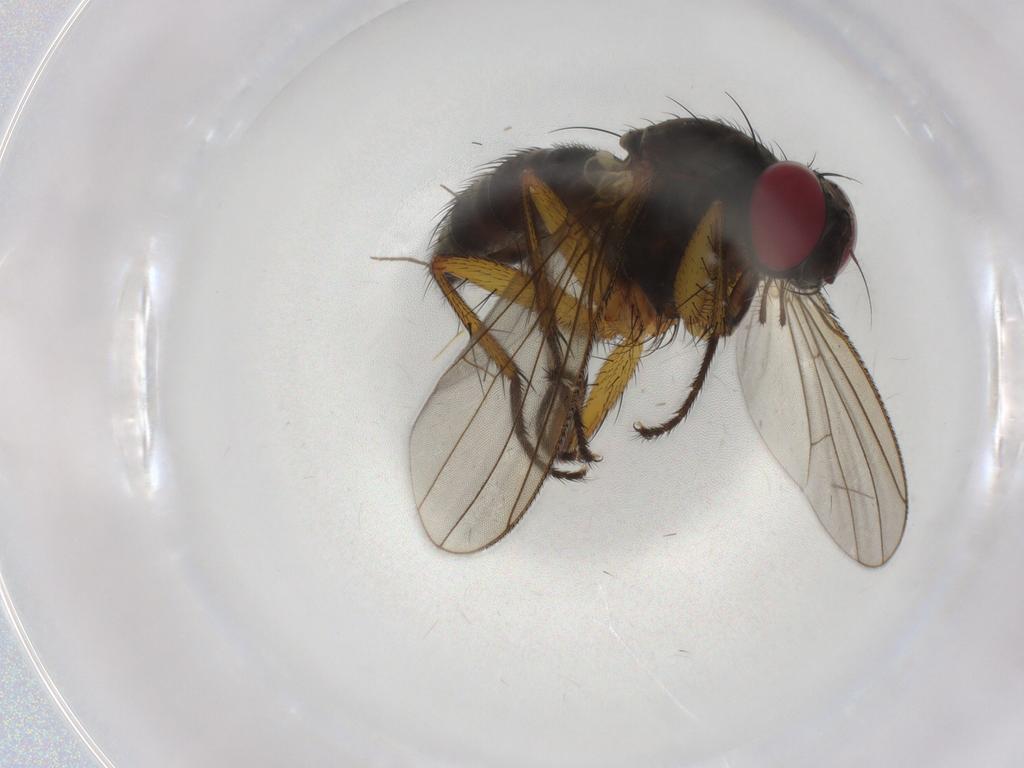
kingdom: Animalia
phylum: Arthropoda
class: Insecta
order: Diptera
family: Muscidae
